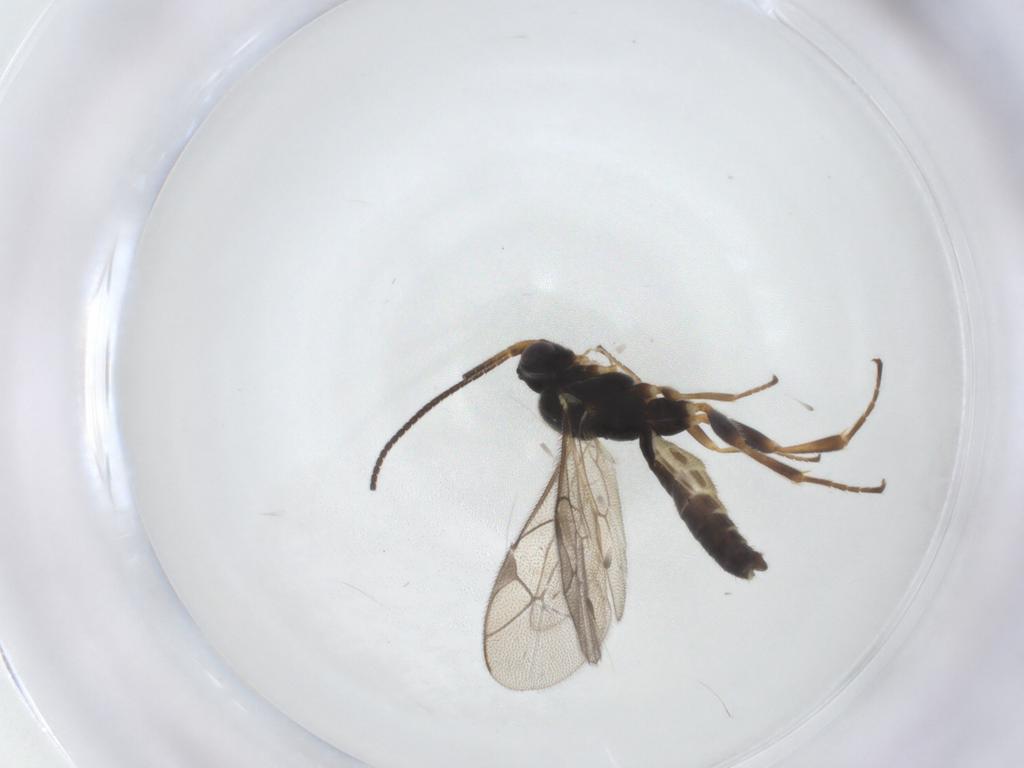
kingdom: Animalia
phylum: Arthropoda
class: Insecta
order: Hymenoptera
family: Ichneumonidae
